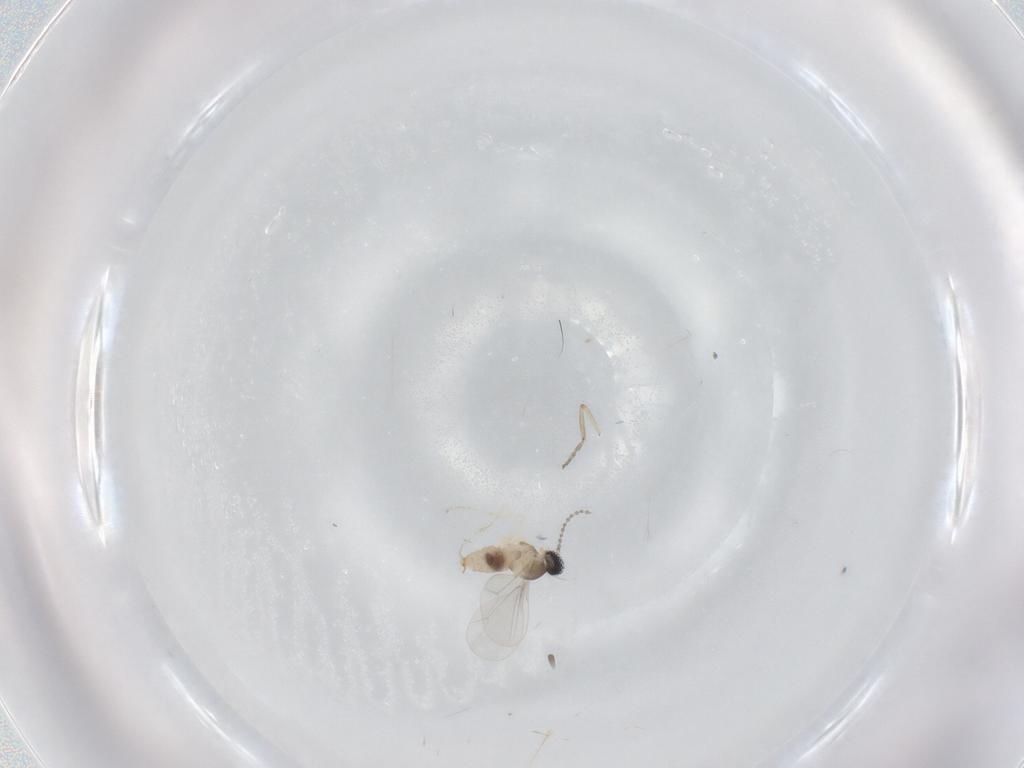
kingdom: Animalia
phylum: Arthropoda
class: Insecta
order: Diptera
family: Cecidomyiidae
